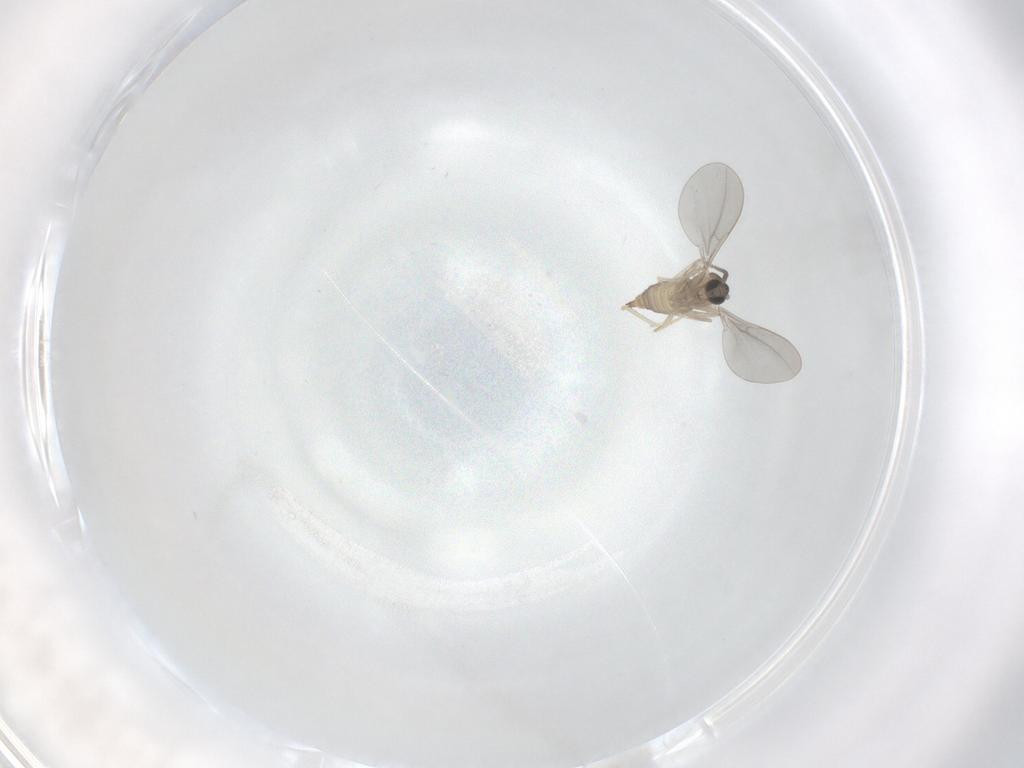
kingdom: Animalia
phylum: Arthropoda
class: Insecta
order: Diptera
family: Cecidomyiidae
